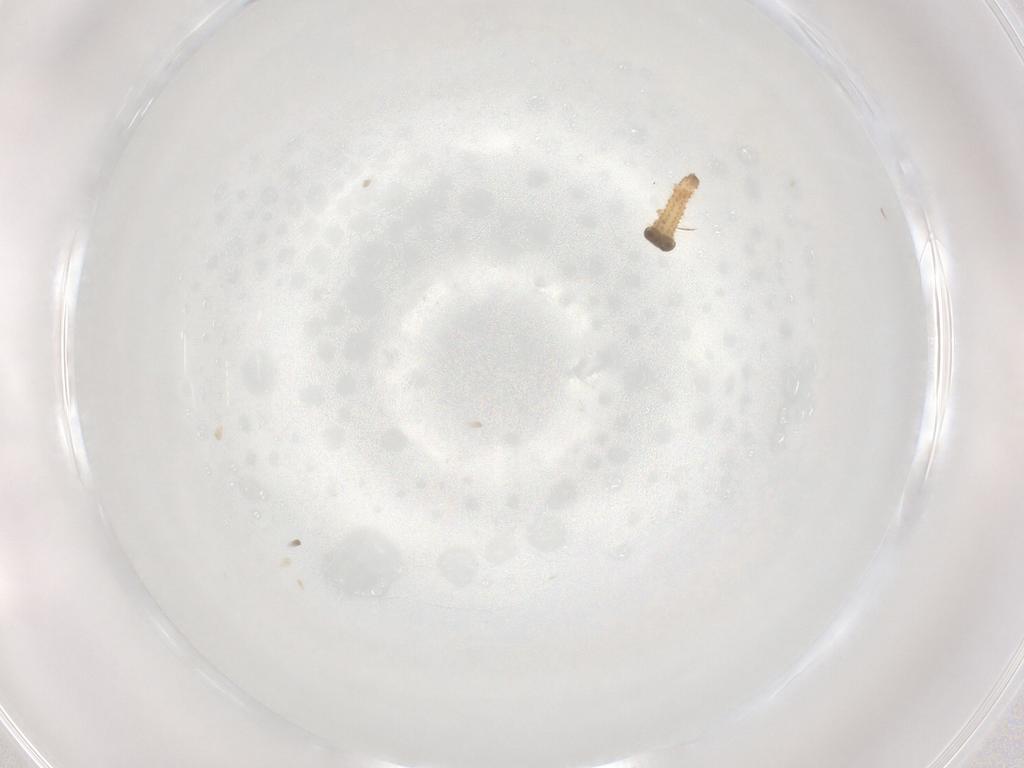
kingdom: Animalia
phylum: Arthropoda
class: Insecta
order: Lepidoptera
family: Crambidae
